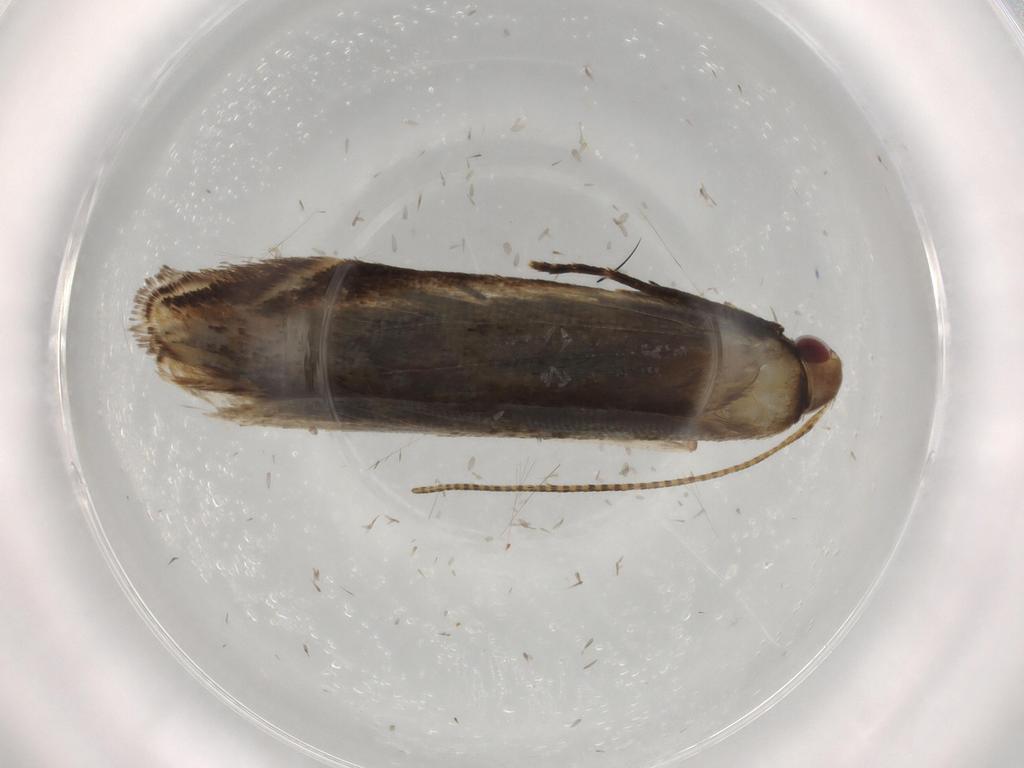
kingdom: Animalia
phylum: Arthropoda
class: Insecta
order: Lepidoptera
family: Gelechiidae
